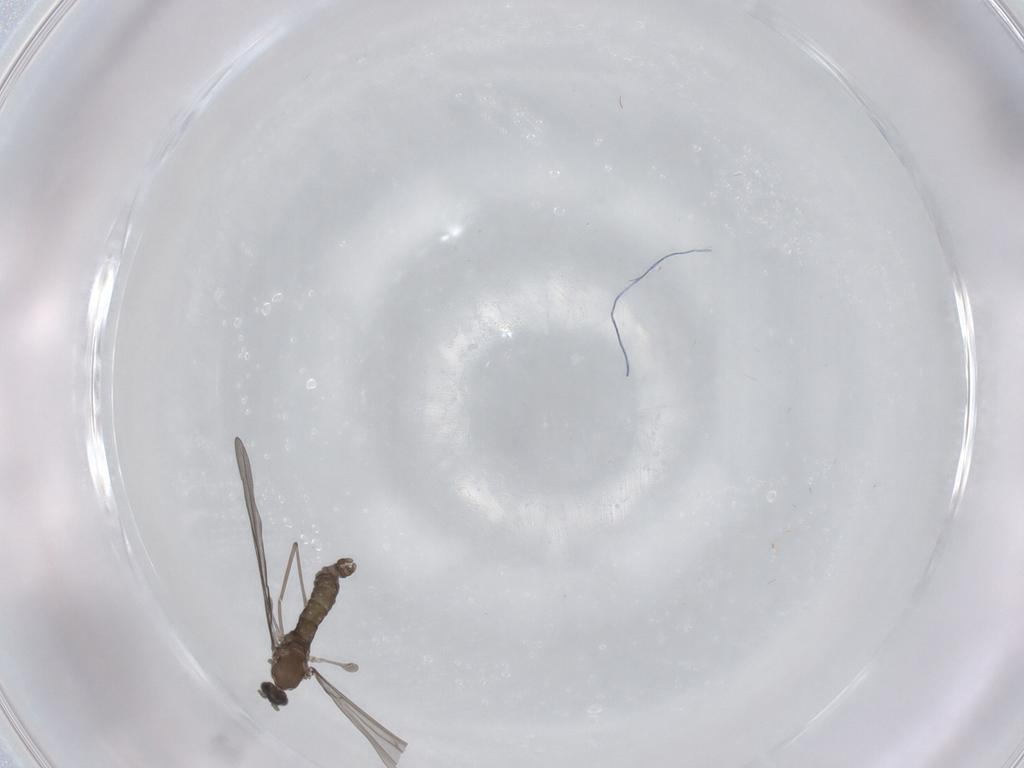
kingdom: Animalia
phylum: Arthropoda
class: Insecta
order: Diptera
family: Cecidomyiidae
